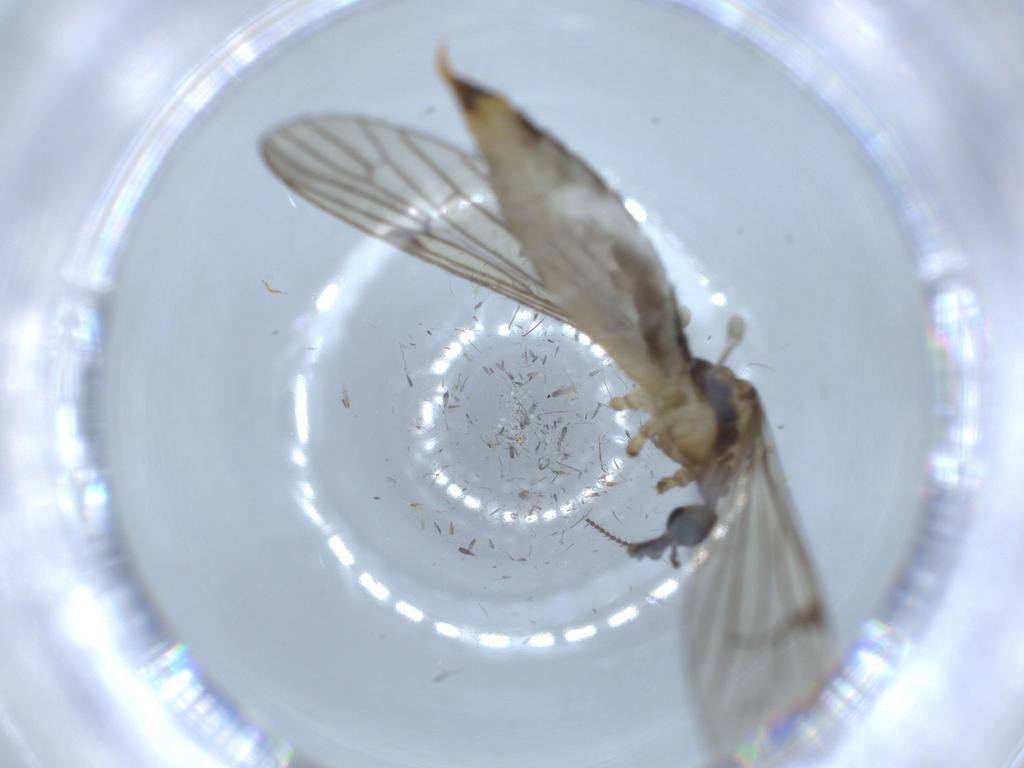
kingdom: Animalia
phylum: Arthropoda
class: Insecta
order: Diptera
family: Limoniidae
